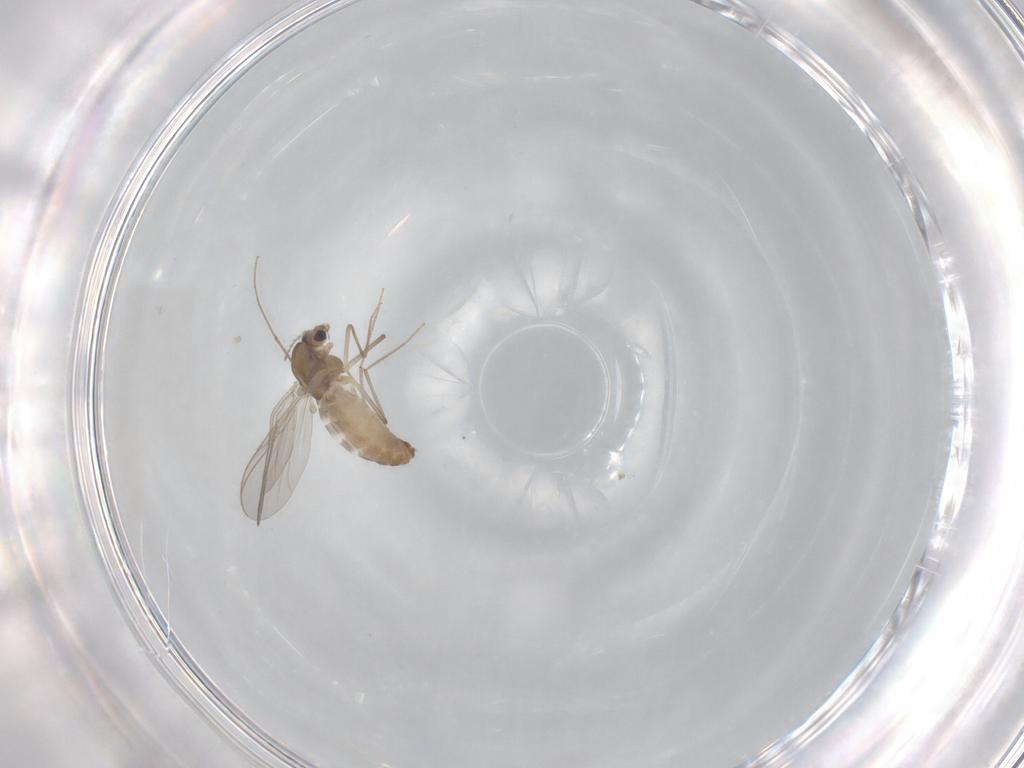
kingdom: Animalia
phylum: Arthropoda
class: Insecta
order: Diptera
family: Chironomidae
